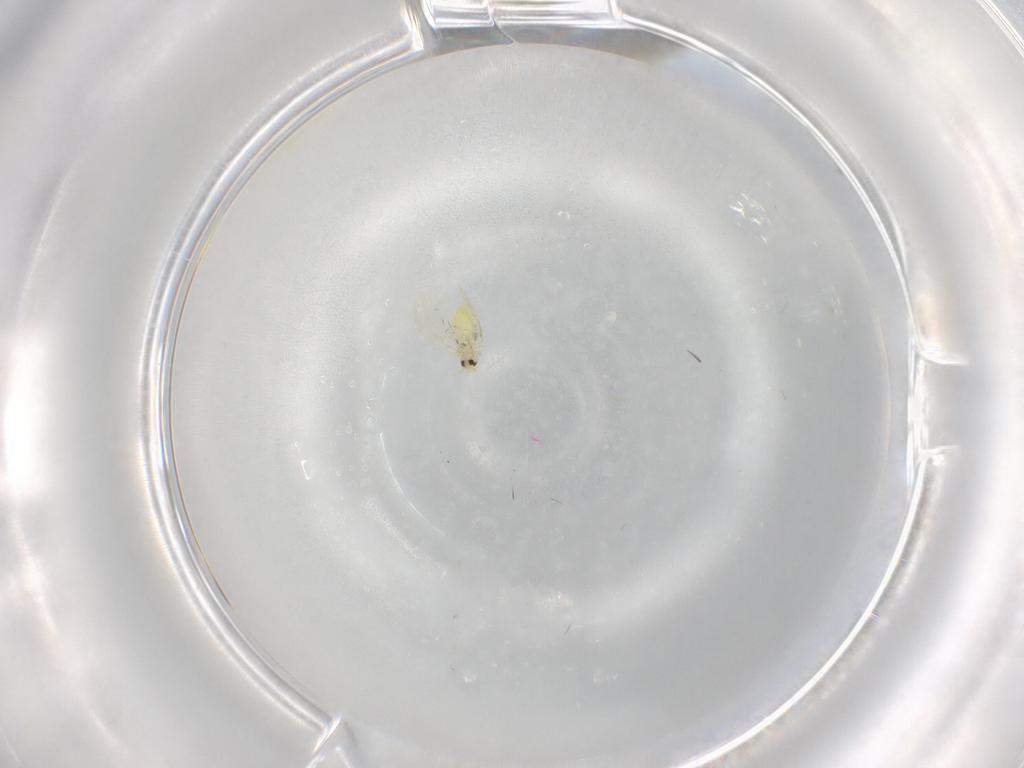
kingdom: Animalia
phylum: Arthropoda
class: Insecta
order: Hemiptera
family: Aleyrodidae
